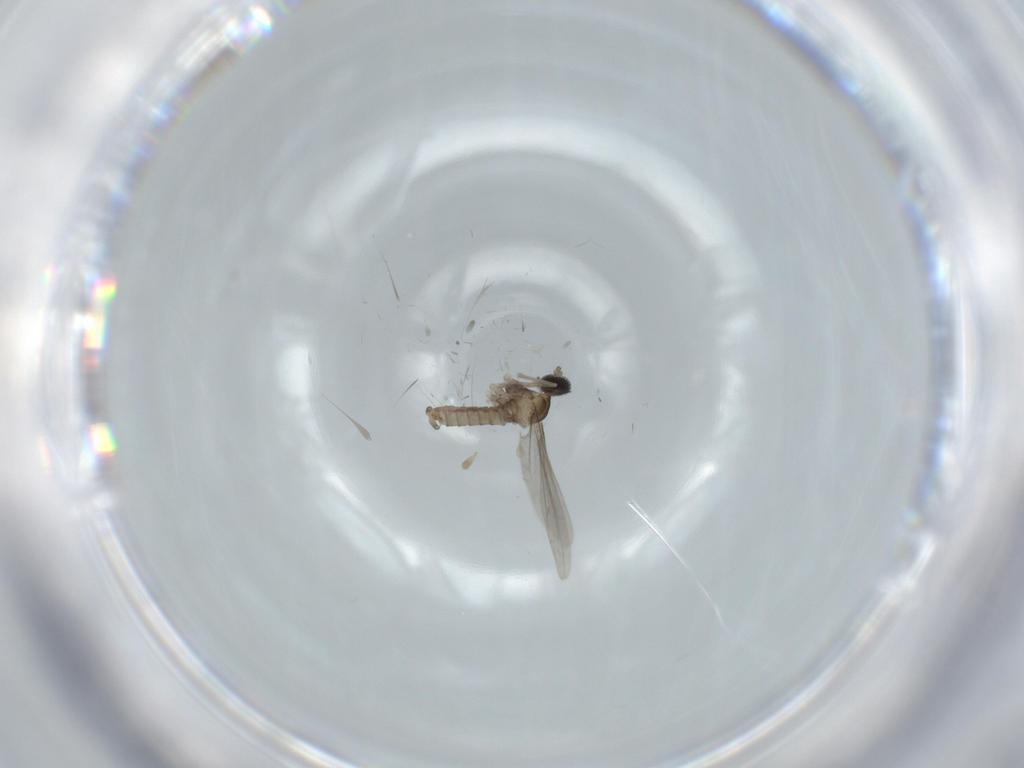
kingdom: Animalia
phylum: Arthropoda
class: Insecta
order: Diptera
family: Cecidomyiidae
